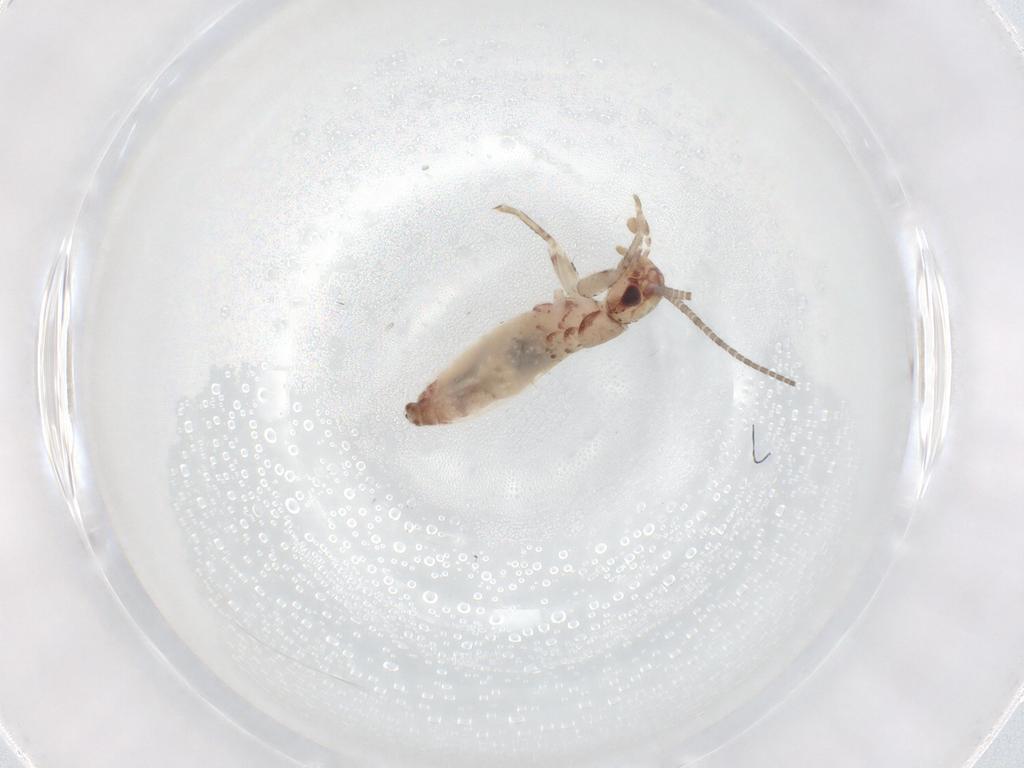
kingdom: Animalia
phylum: Arthropoda
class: Insecta
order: Orthoptera
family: Mogoplistidae
